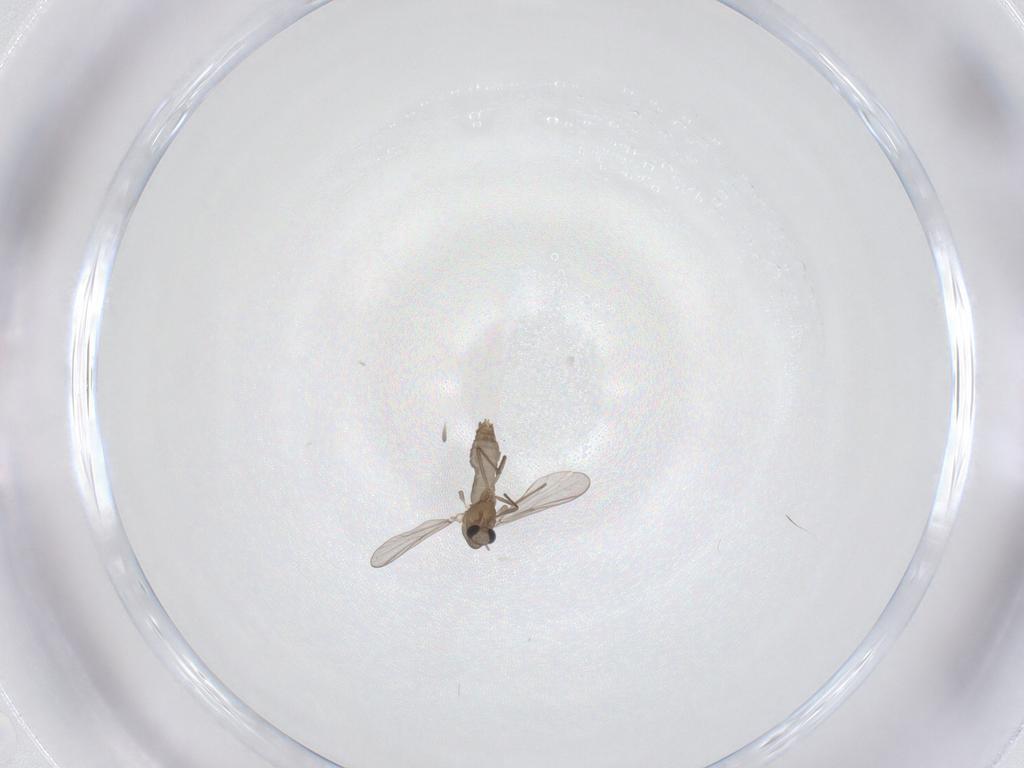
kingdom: Animalia
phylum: Arthropoda
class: Insecta
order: Diptera
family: Chironomidae
